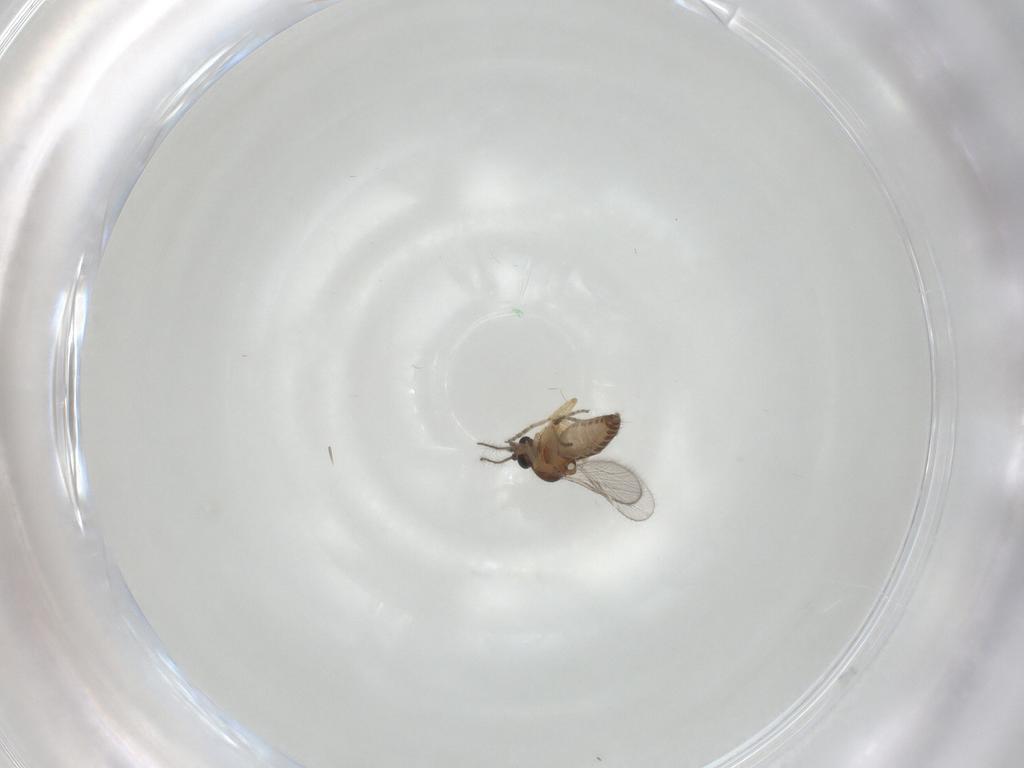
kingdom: Animalia
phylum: Arthropoda
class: Insecta
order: Diptera
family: Ceratopogonidae
